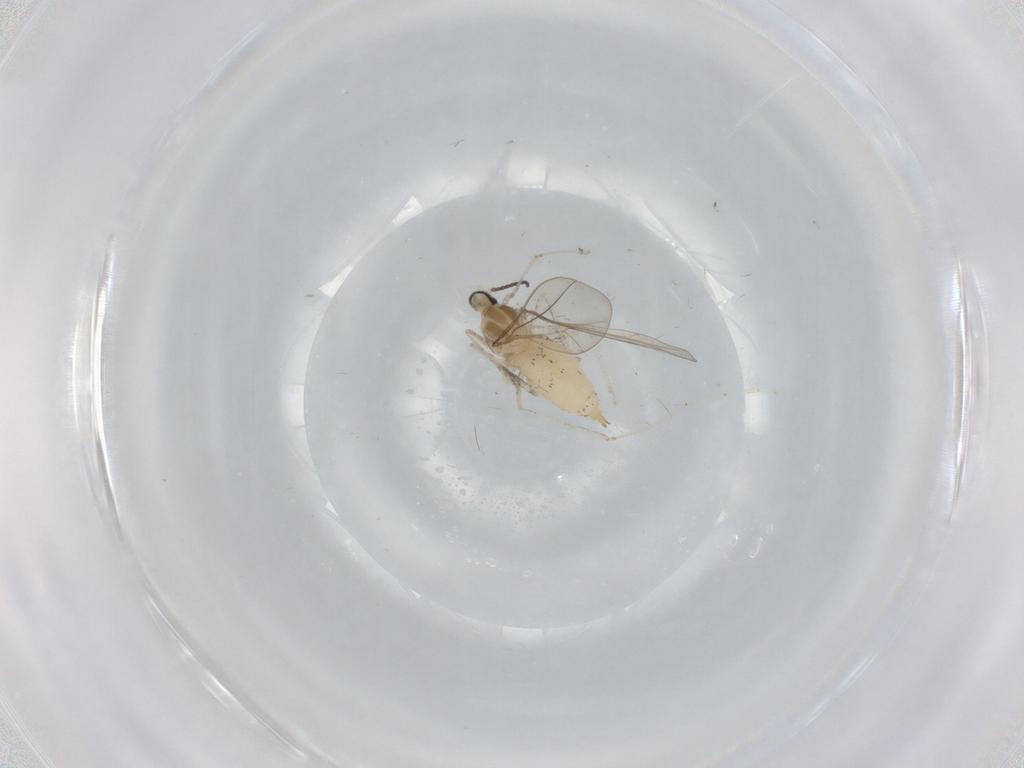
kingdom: Animalia
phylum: Arthropoda
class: Insecta
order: Diptera
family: Cecidomyiidae
